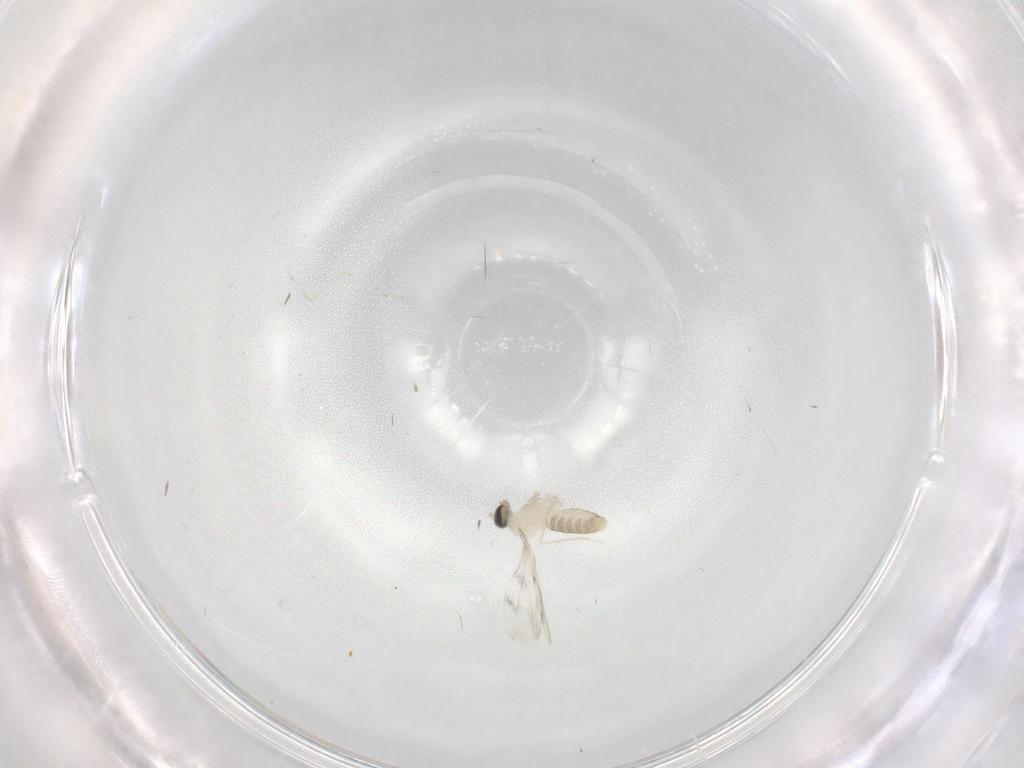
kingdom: Animalia
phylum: Arthropoda
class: Insecta
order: Diptera
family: Cecidomyiidae
